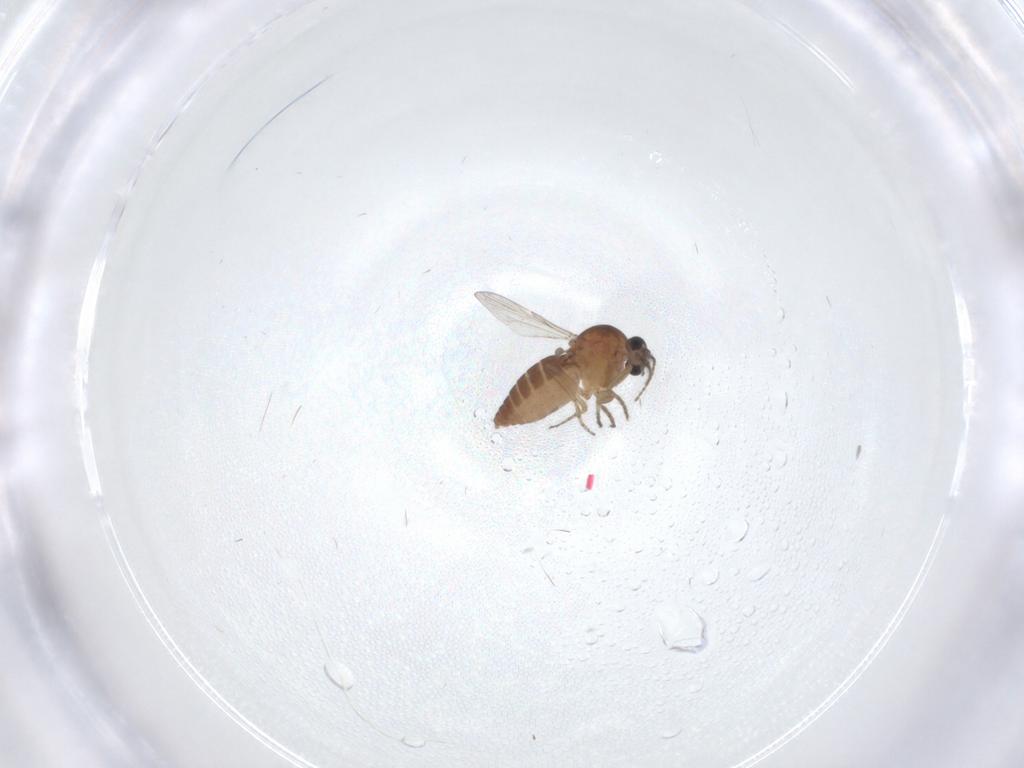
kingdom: Animalia
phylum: Arthropoda
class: Insecta
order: Diptera
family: Ceratopogonidae
